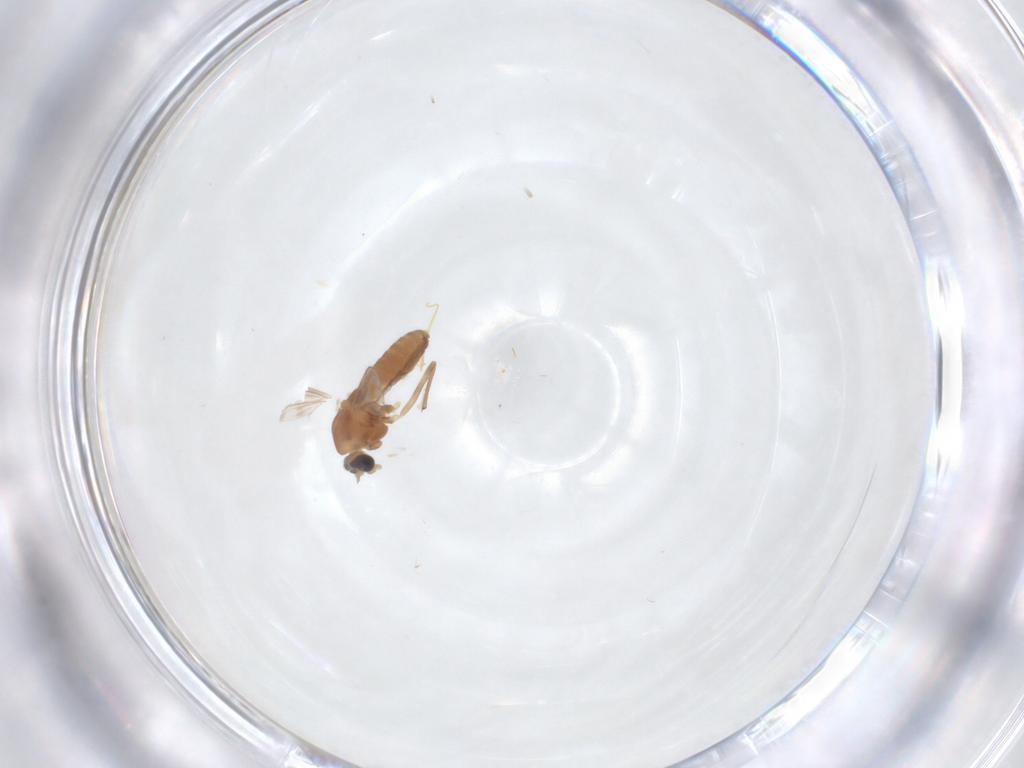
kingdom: Animalia
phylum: Arthropoda
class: Insecta
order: Diptera
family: Chironomidae
